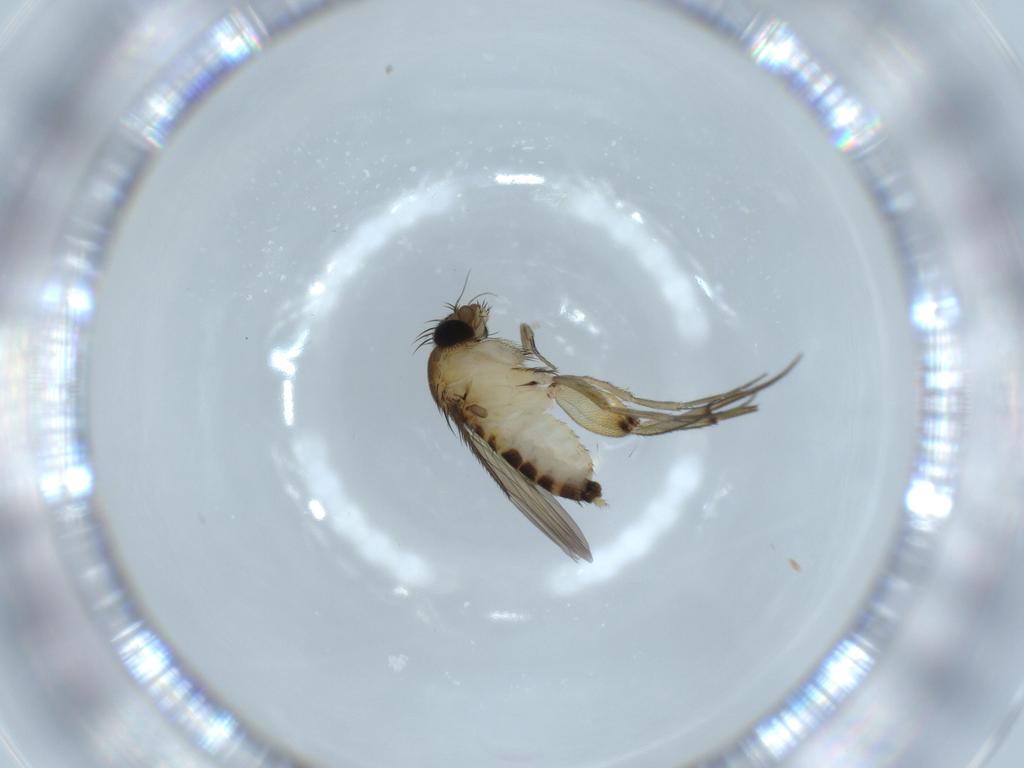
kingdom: Animalia
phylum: Arthropoda
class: Insecta
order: Diptera
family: Phoridae
